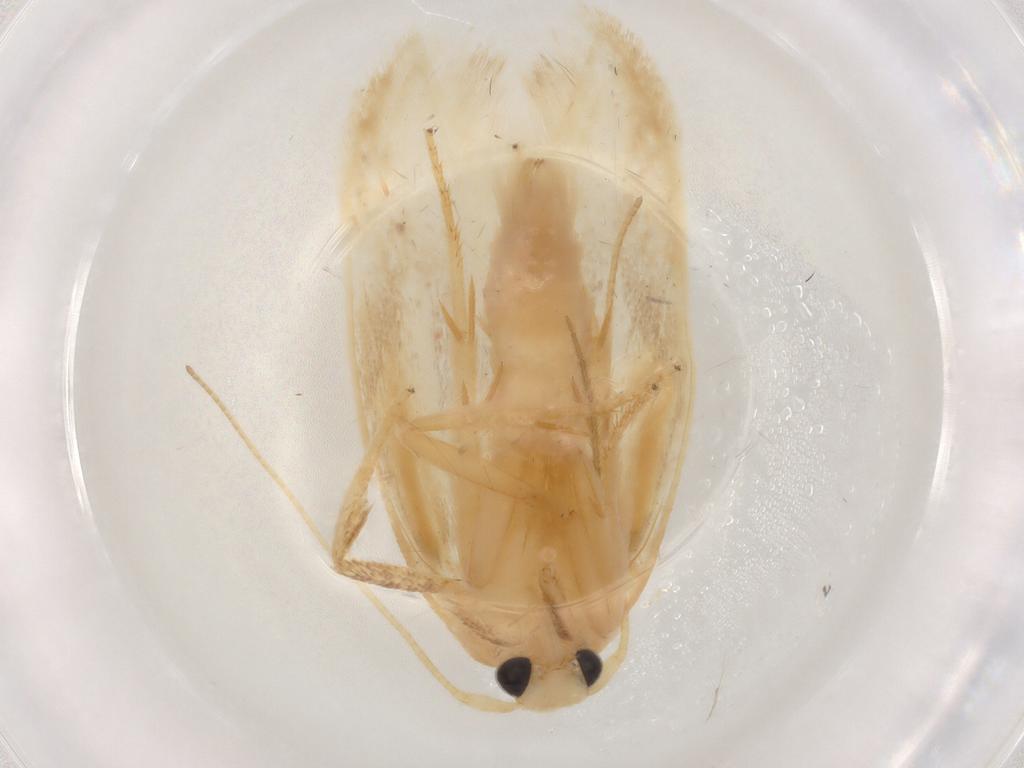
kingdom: Animalia
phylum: Arthropoda
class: Insecta
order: Lepidoptera
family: Geometridae
